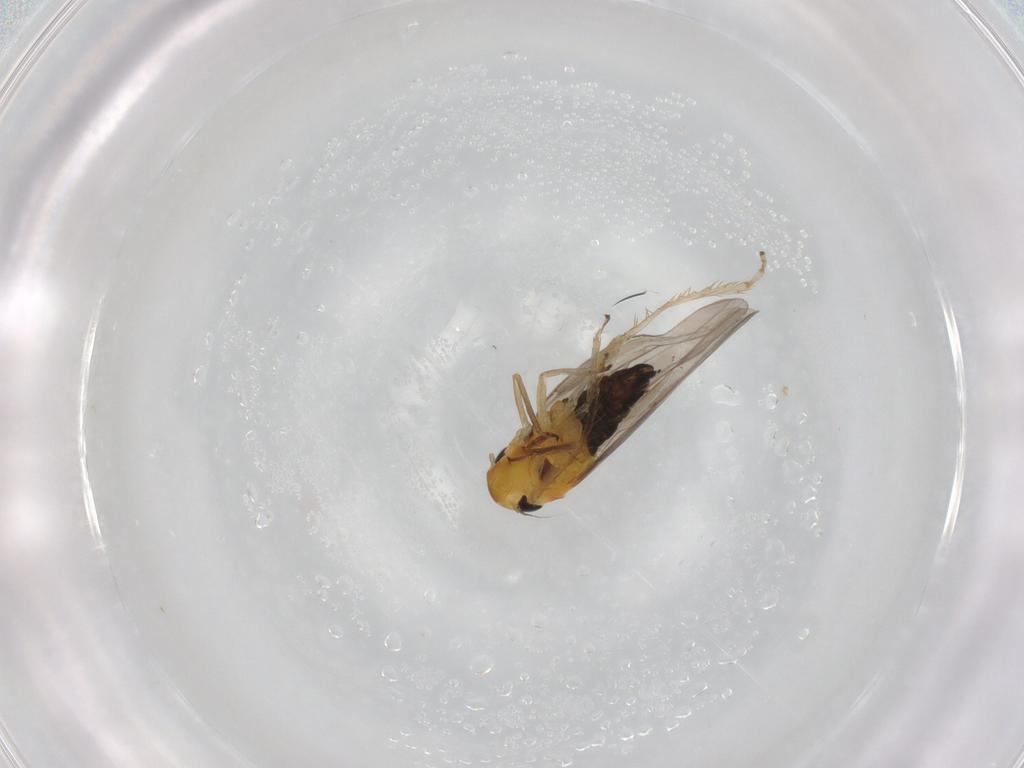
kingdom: Animalia
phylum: Arthropoda
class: Insecta
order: Hemiptera
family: Cicadellidae
